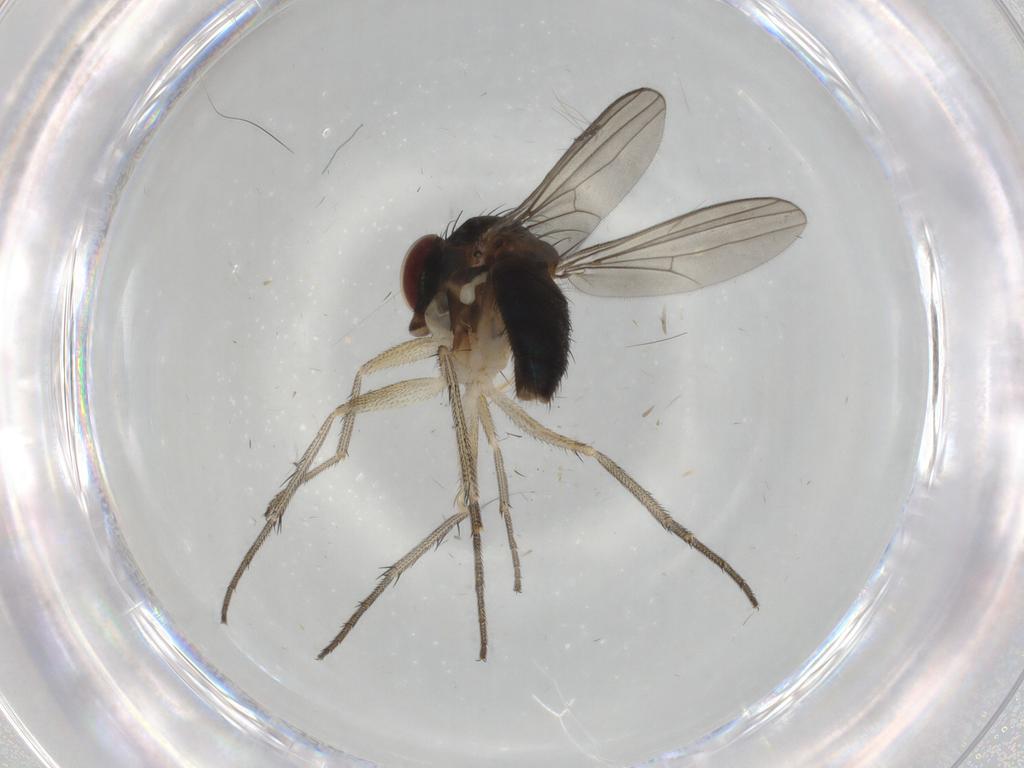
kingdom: Animalia
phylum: Arthropoda
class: Insecta
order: Diptera
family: Dolichopodidae
